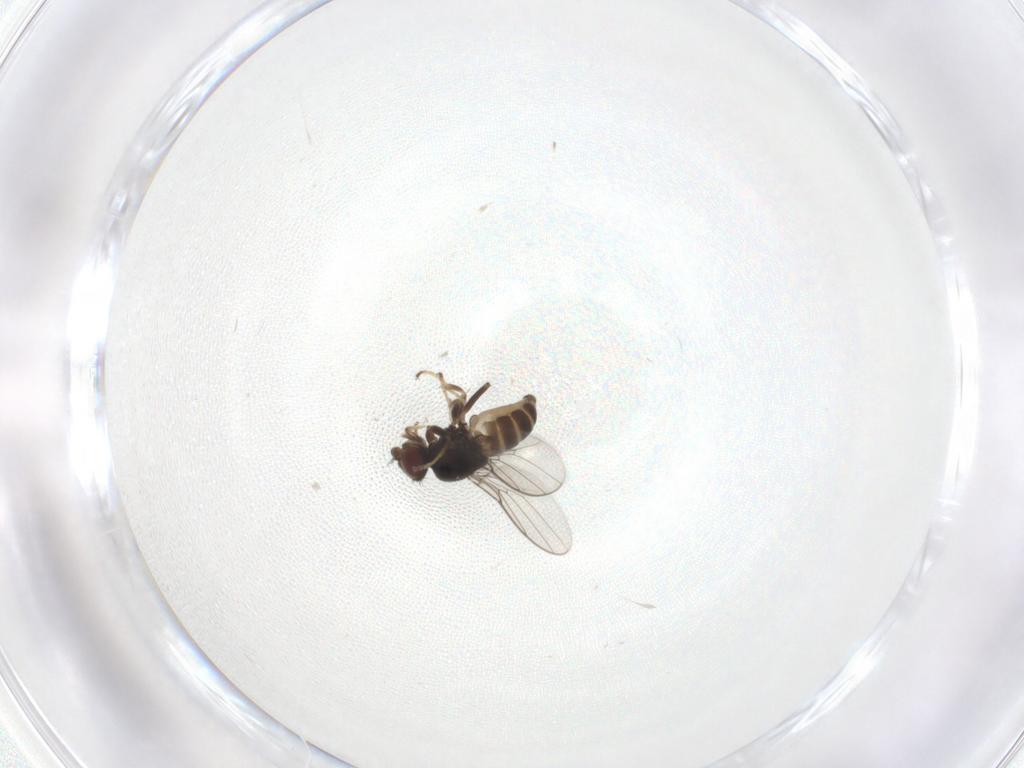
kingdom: Animalia
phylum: Arthropoda
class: Insecta
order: Diptera
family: Chloropidae
